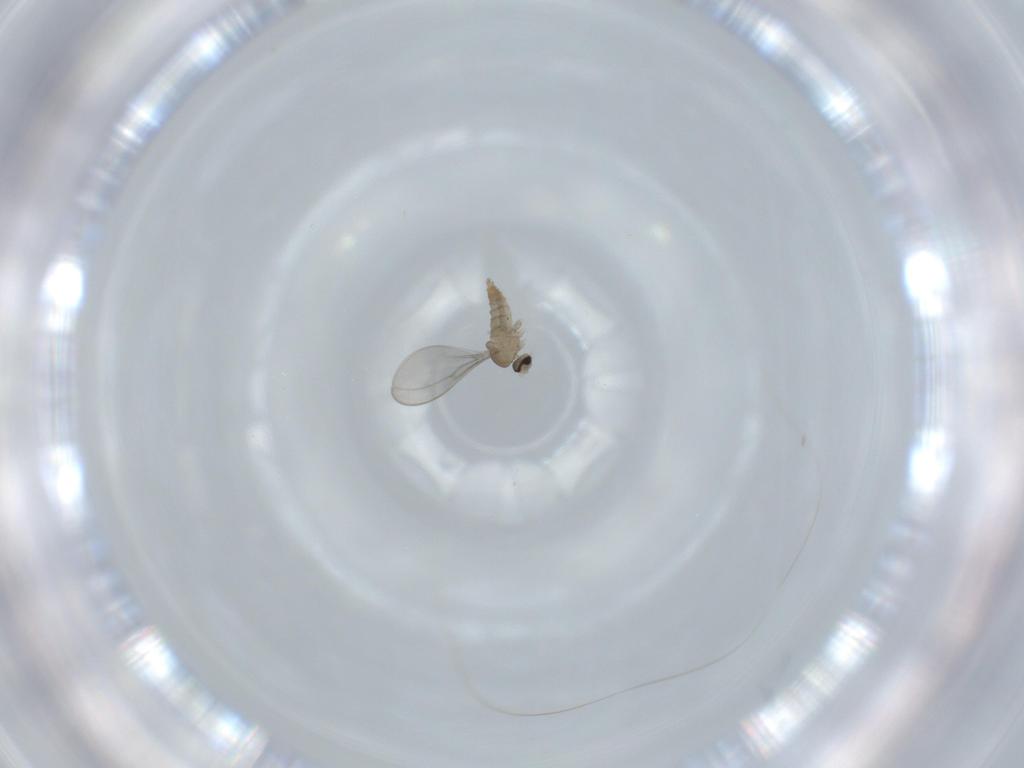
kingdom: Animalia
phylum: Arthropoda
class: Insecta
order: Diptera
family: Cecidomyiidae
